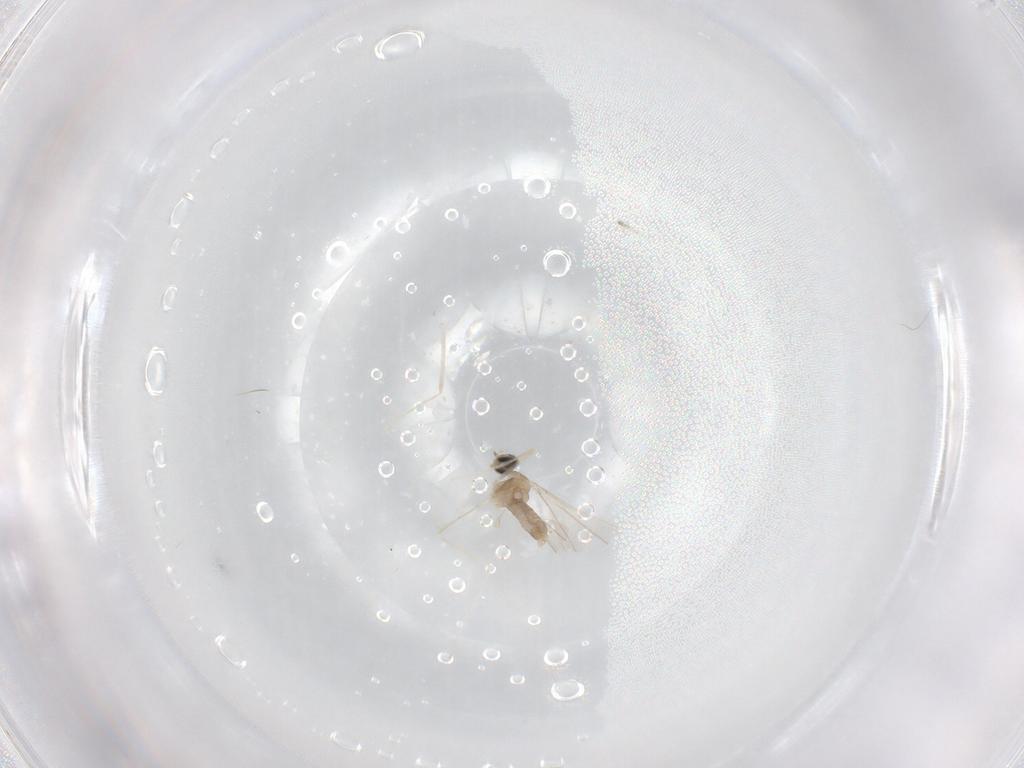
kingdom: Animalia
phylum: Arthropoda
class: Insecta
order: Diptera
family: Cecidomyiidae
